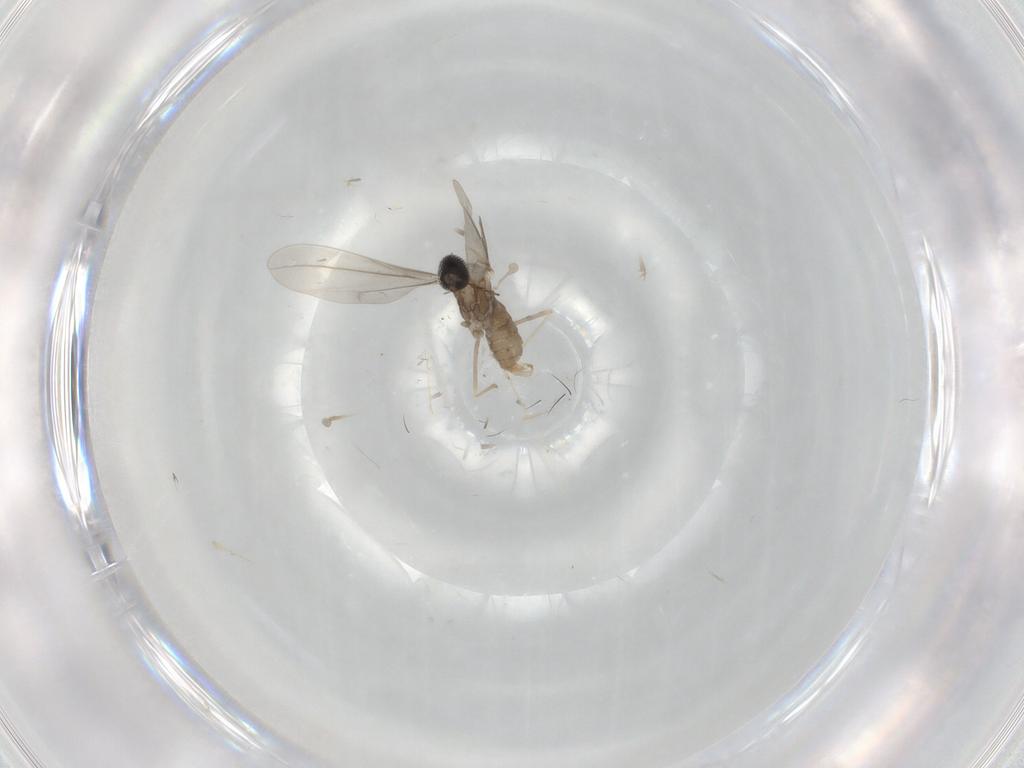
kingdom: Animalia
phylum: Arthropoda
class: Insecta
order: Diptera
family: Cecidomyiidae
